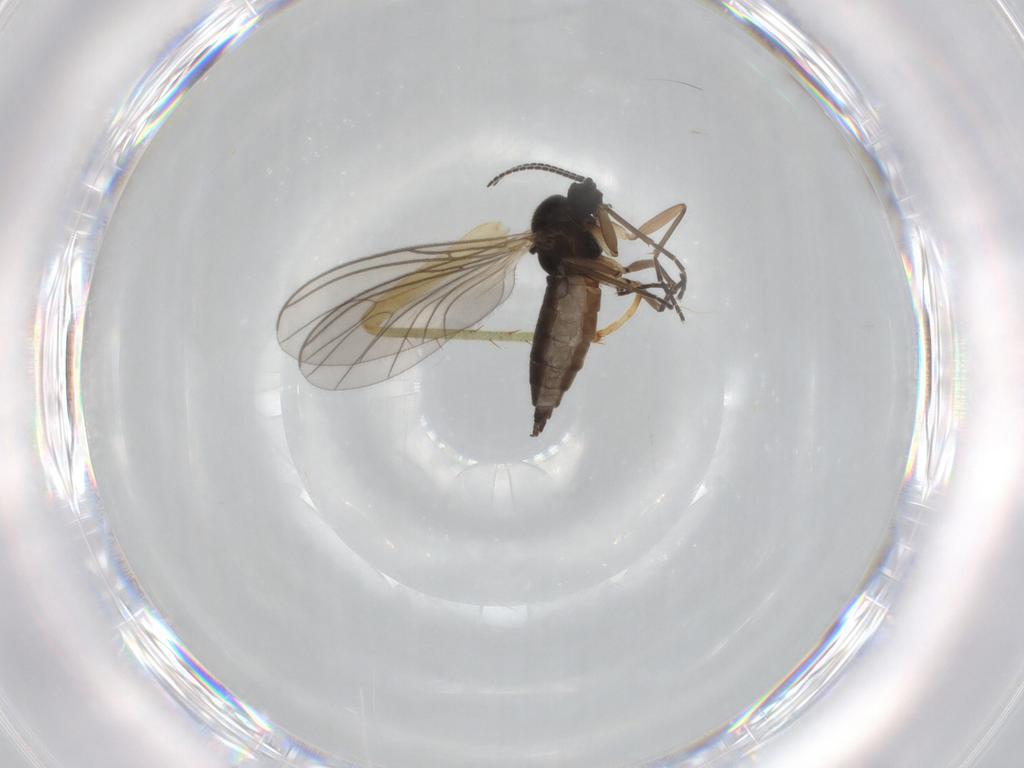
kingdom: Animalia
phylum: Arthropoda
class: Insecta
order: Diptera
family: Sciaridae
